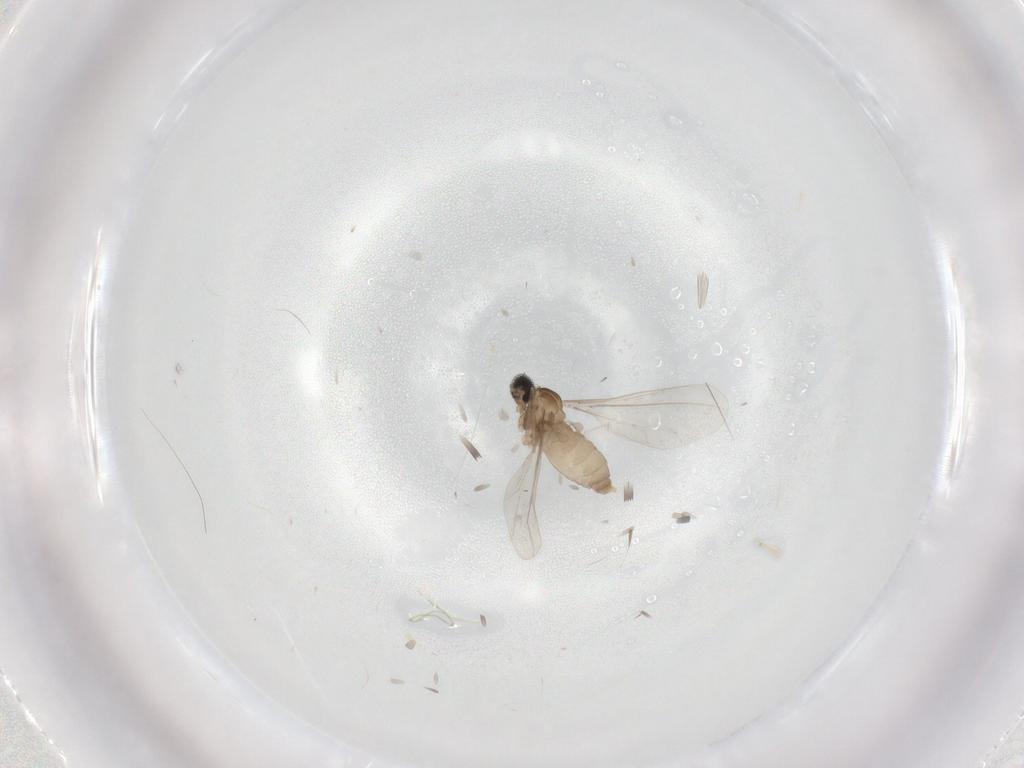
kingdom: Animalia
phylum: Arthropoda
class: Insecta
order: Diptera
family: Cecidomyiidae
